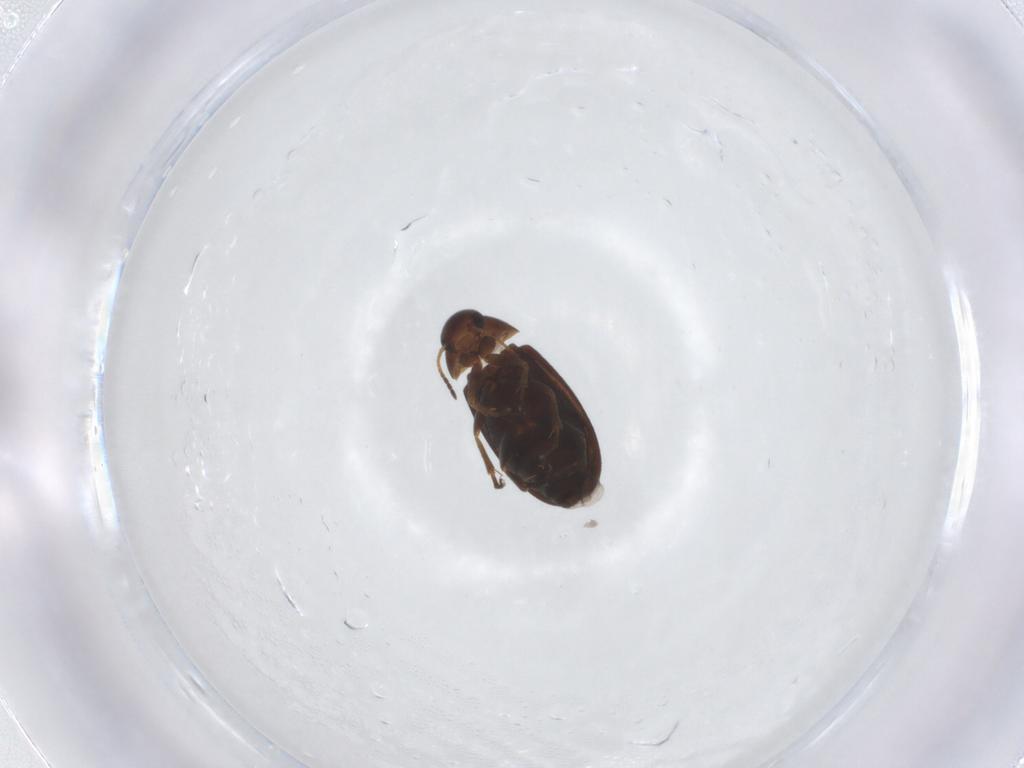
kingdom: Animalia
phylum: Arthropoda
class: Insecta
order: Coleoptera
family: Scraptiidae
